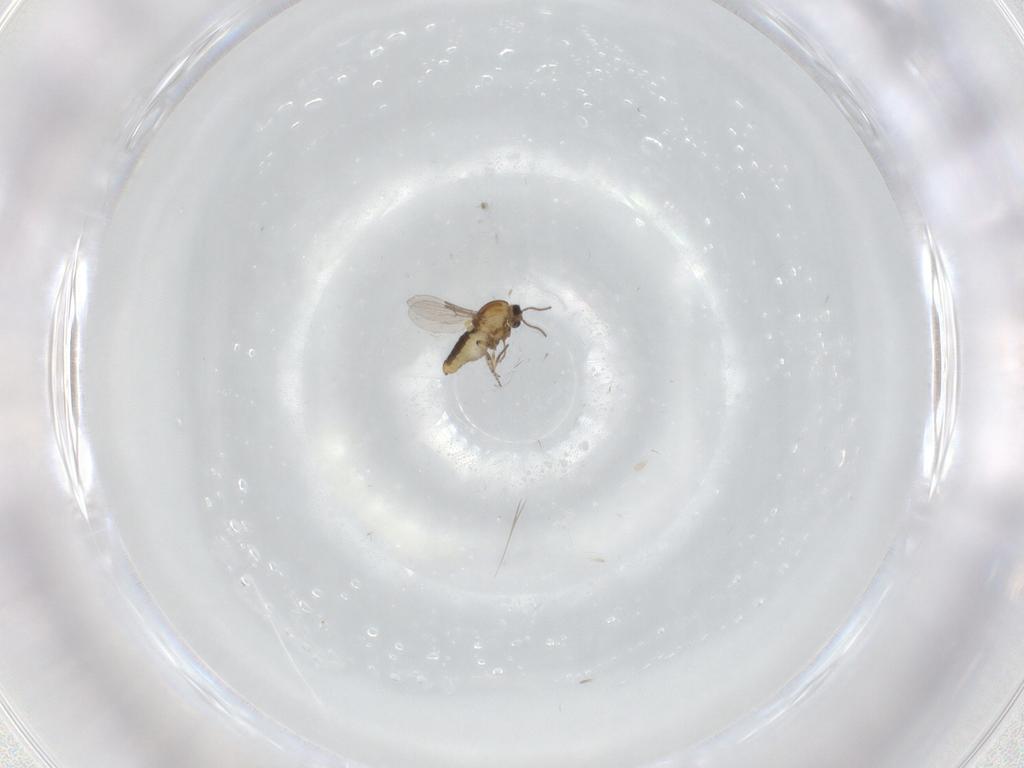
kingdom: Animalia
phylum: Arthropoda
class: Insecta
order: Diptera
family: Ceratopogonidae
